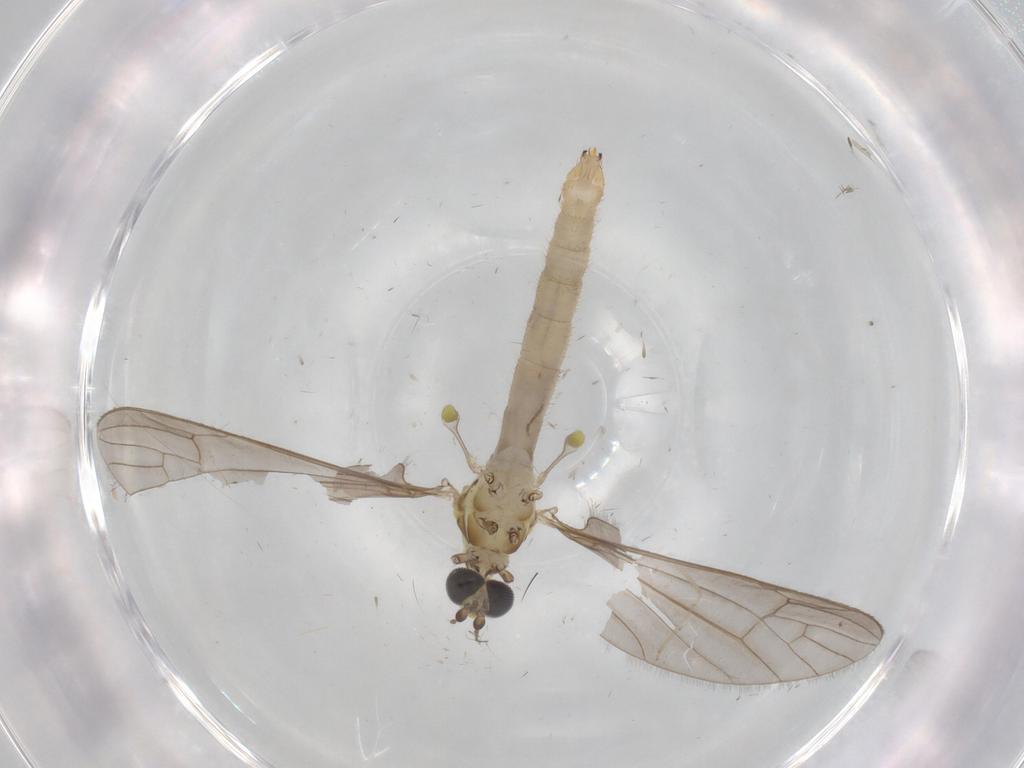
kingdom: Animalia
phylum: Arthropoda
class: Insecta
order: Diptera
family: Phoridae
